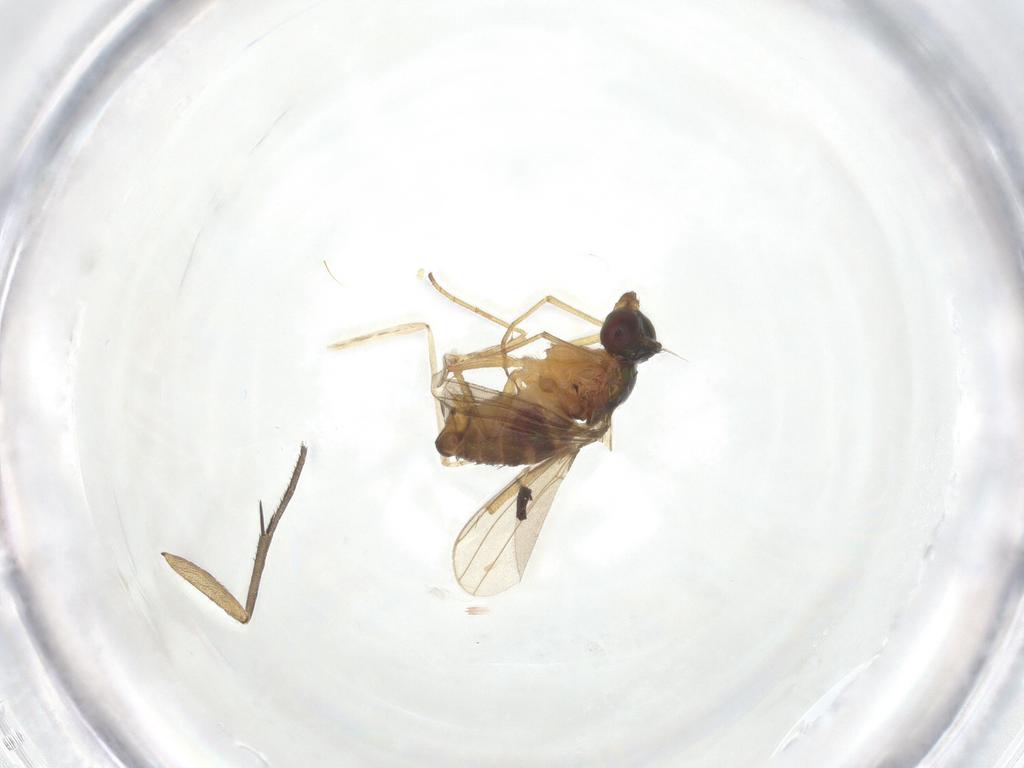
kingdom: Animalia
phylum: Arthropoda
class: Insecta
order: Diptera
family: Dolichopodidae
